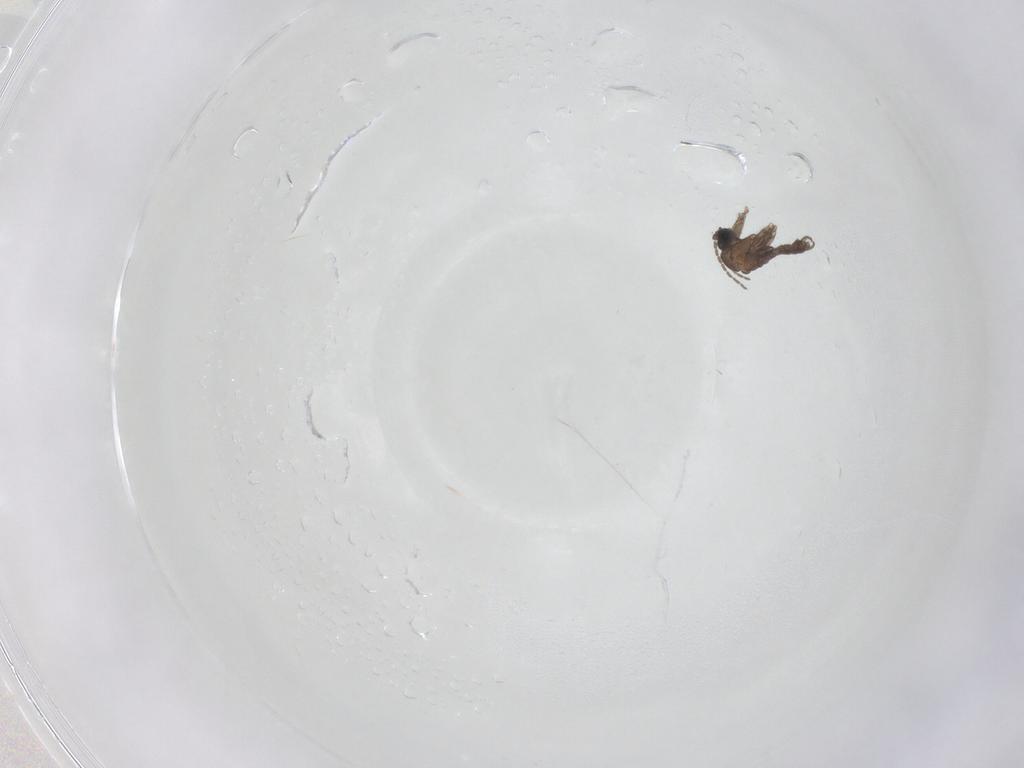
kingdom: Animalia
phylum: Arthropoda
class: Insecta
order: Diptera
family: Sciaridae
